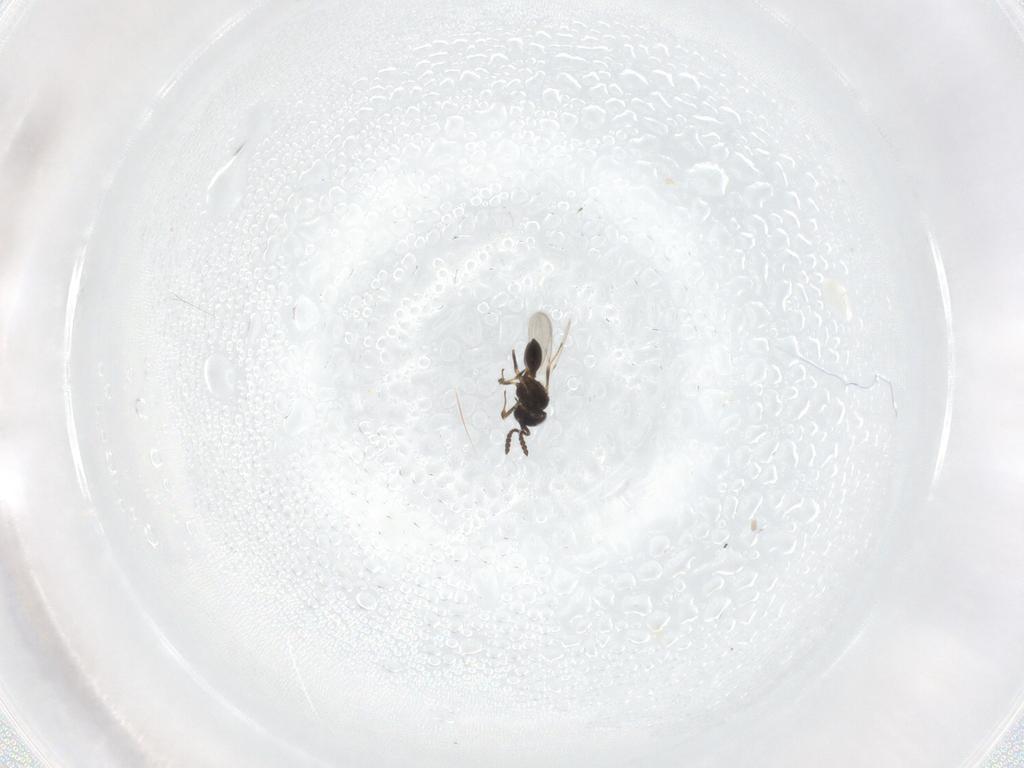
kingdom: Animalia
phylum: Arthropoda
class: Insecta
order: Hymenoptera
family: Scelionidae
